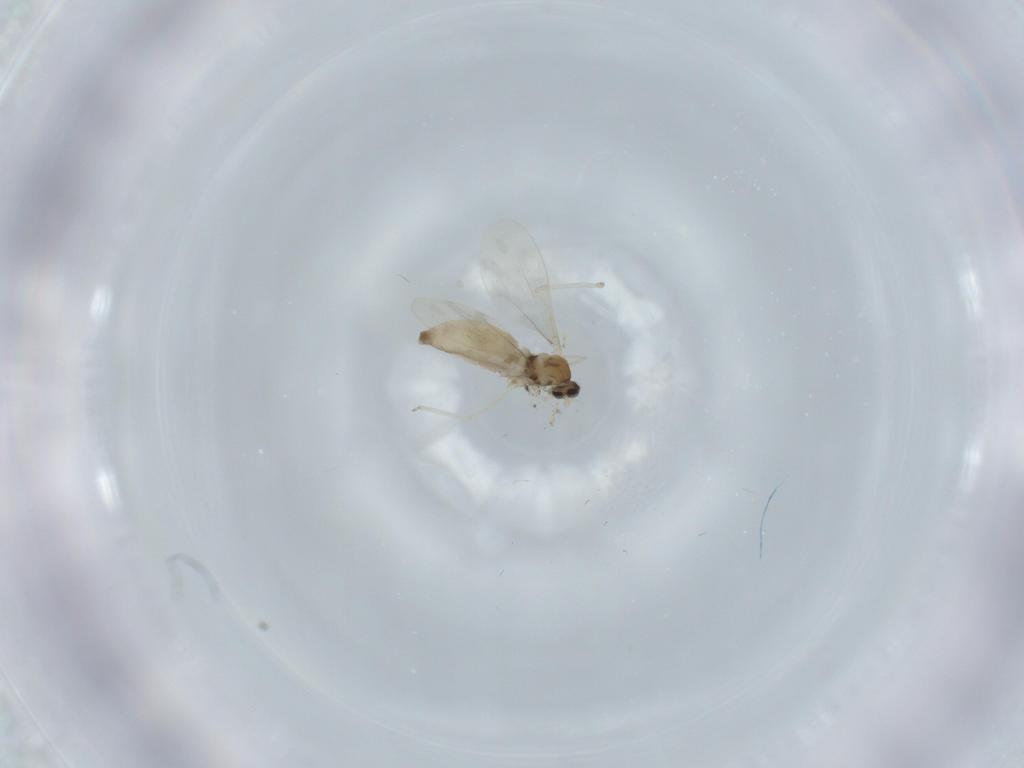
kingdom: Animalia
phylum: Arthropoda
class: Insecta
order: Diptera
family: Cecidomyiidae
